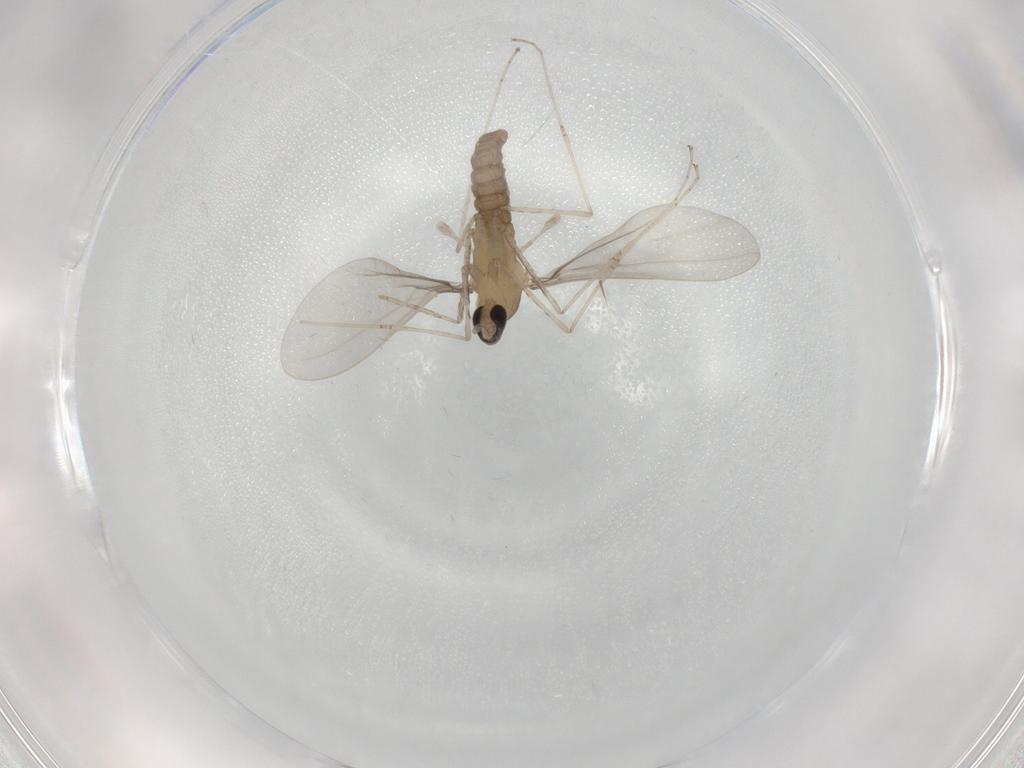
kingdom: Animalia
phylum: Arthropoda
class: Insecta
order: Diptera
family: Cecidomyiidae
